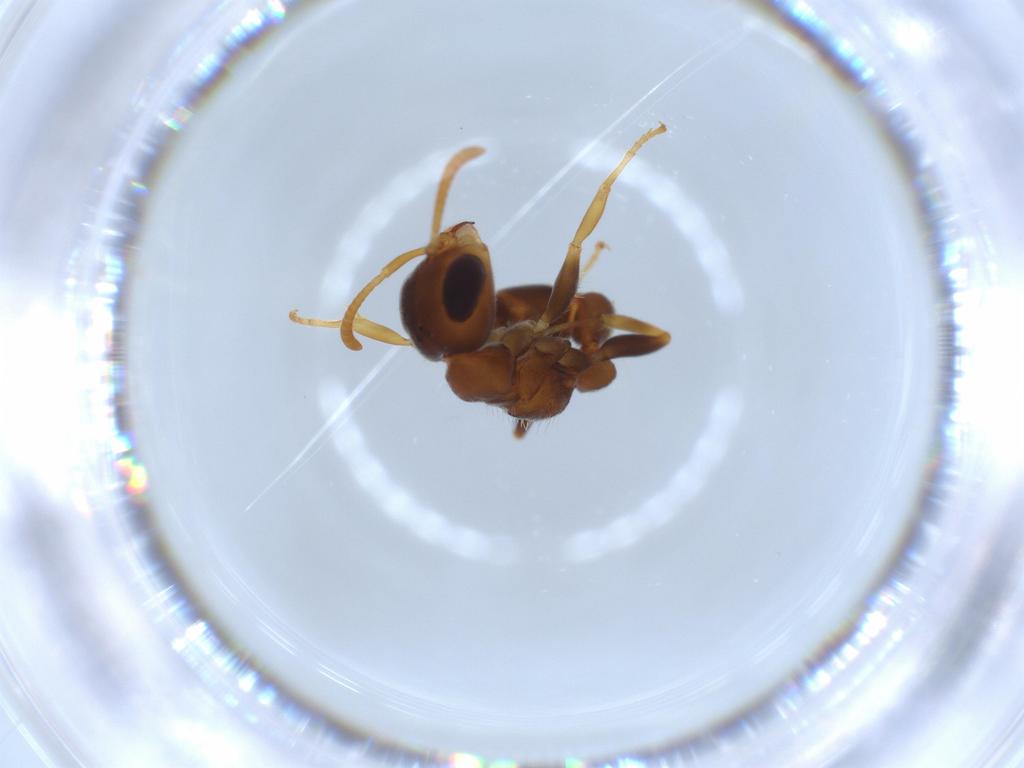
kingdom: Animalia
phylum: Arthropoda
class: Insecta
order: Hymenoptera
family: Formicidae
